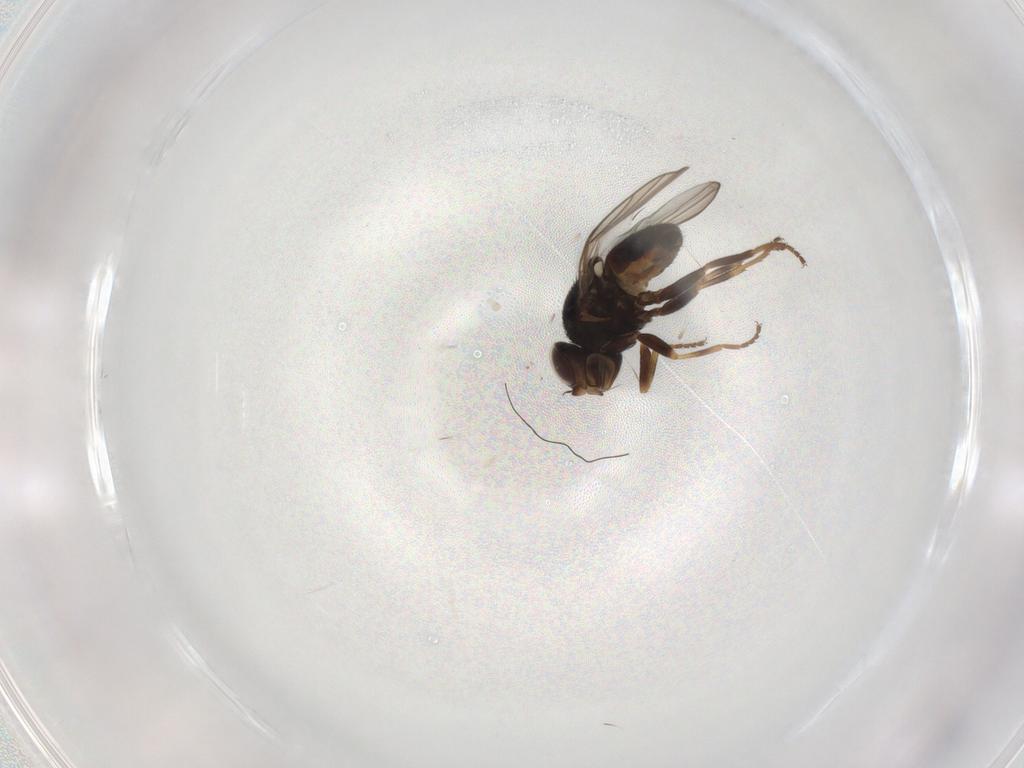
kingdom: Animalia
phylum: Arthropoda
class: Insecta
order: Diptera
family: Chloropidae
